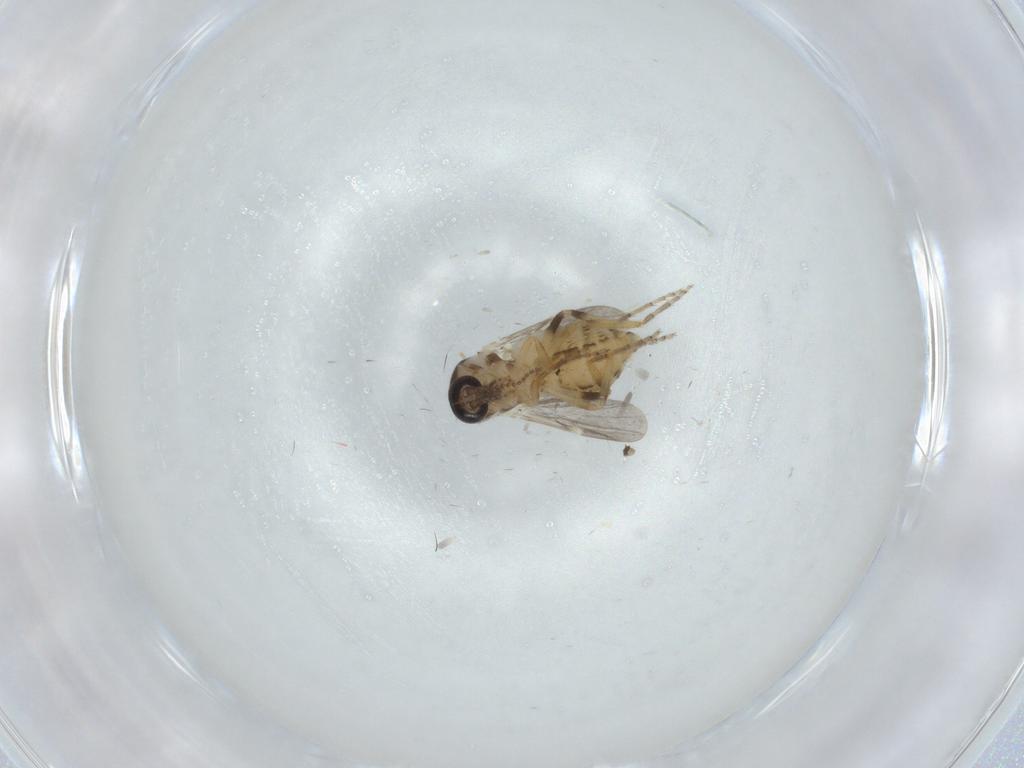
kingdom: Animalia
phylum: Arthropoda
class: Insecta
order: Diptera
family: Ceratopogonidae
